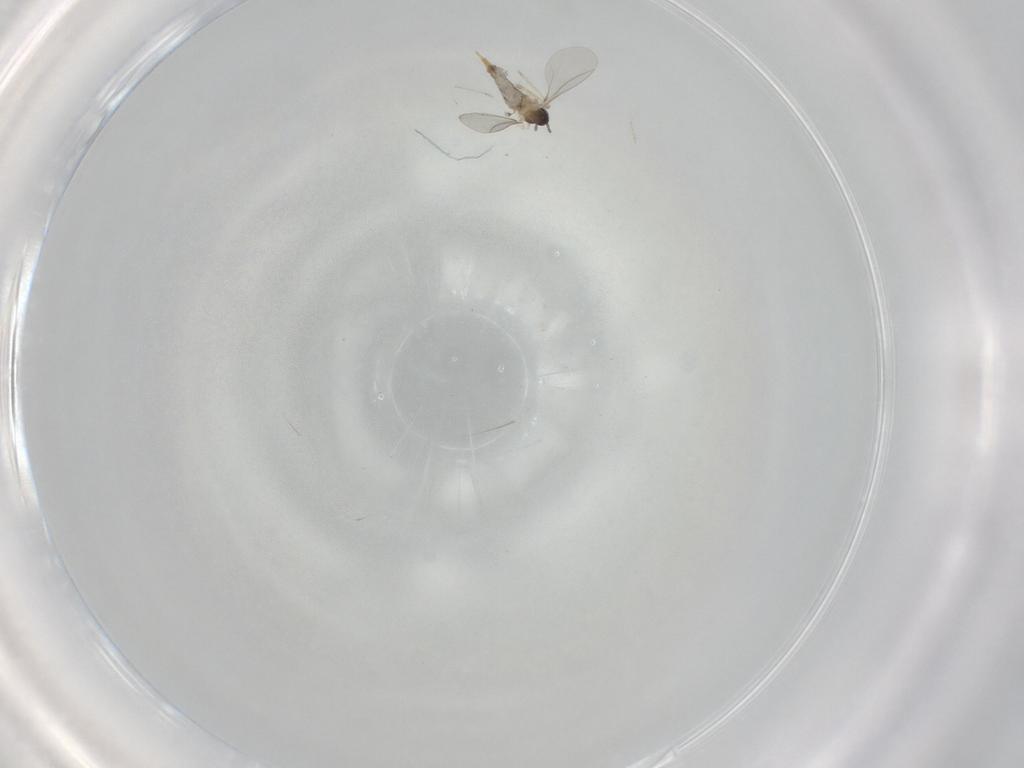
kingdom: Animalia
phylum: Arthropoda
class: Insecta
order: Diptera
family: Cecidomyiidae
